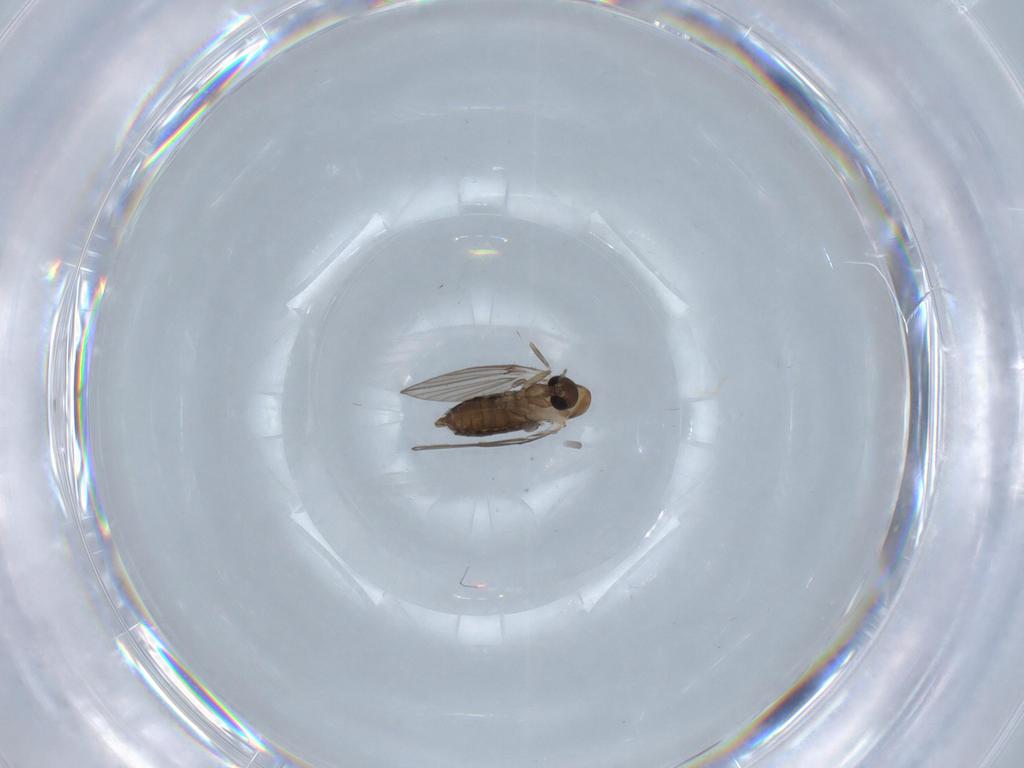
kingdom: Animalia
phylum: Arthropoda
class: Insecta
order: Diptera
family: Psychodidae
